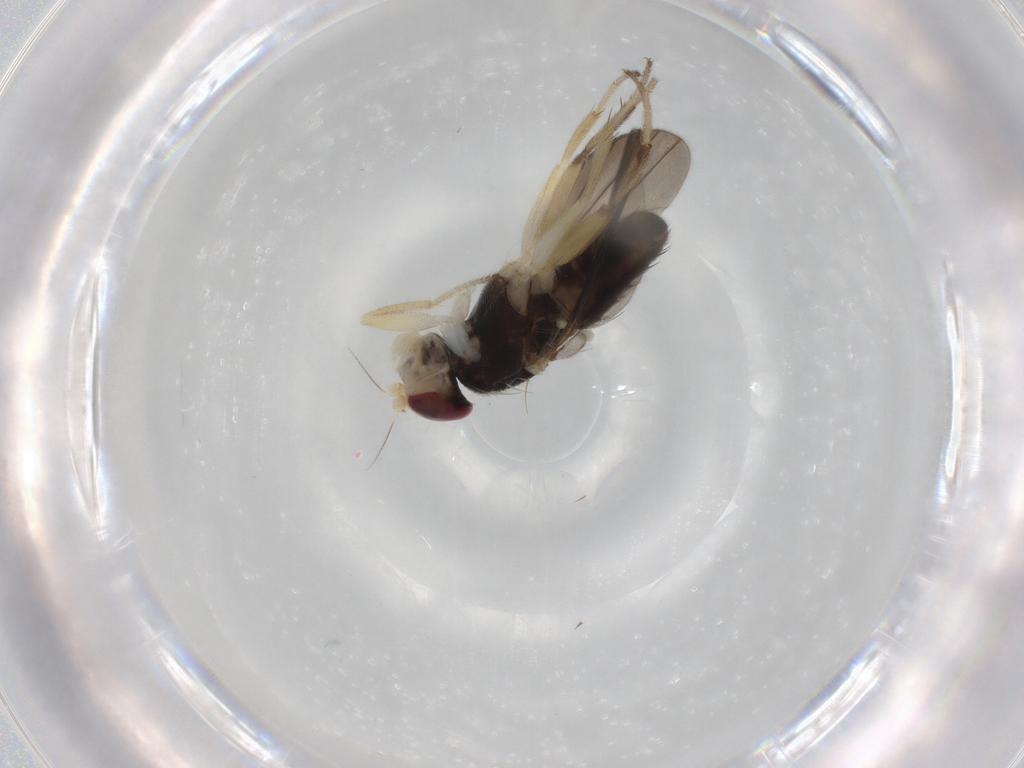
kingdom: Animalia
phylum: Arthropoda
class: Insecta
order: Diptera
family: Clusiidae
